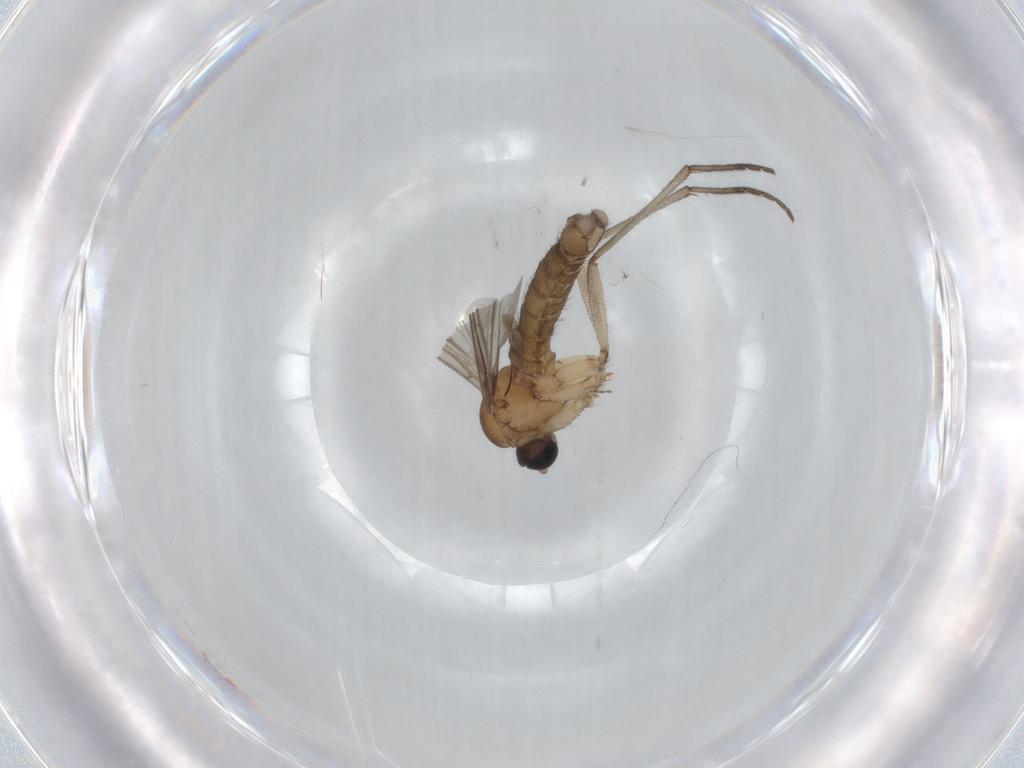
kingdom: Animalia
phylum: Arthropoda
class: Insecta
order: Diptera
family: Sciaridae
